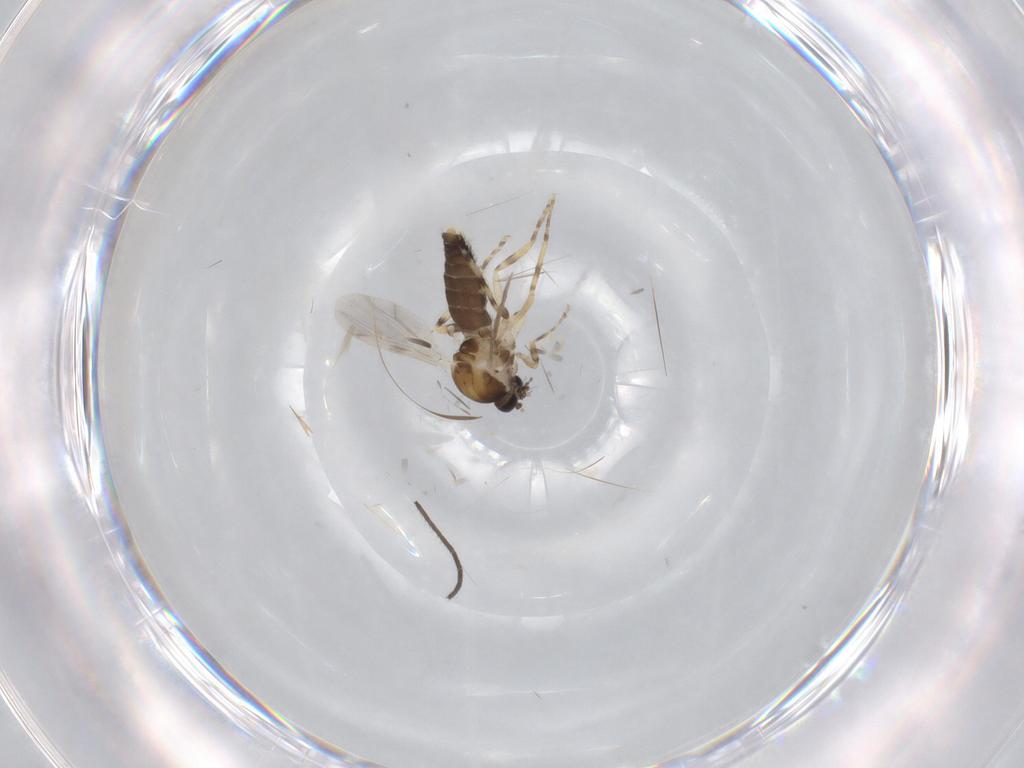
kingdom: Animalia
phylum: Arthropoda
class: Insecta
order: Diptera
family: Ceratopogonidae
